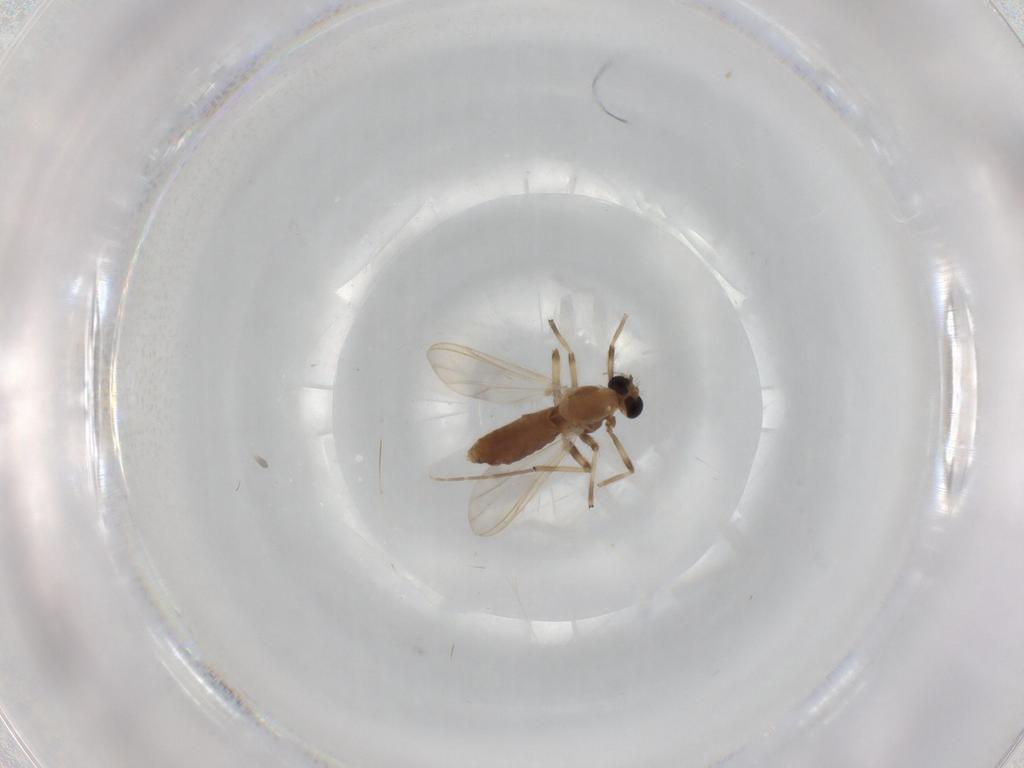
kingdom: Animalia
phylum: Arthropoda
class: Insecta
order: Diptera
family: Chironomidae
